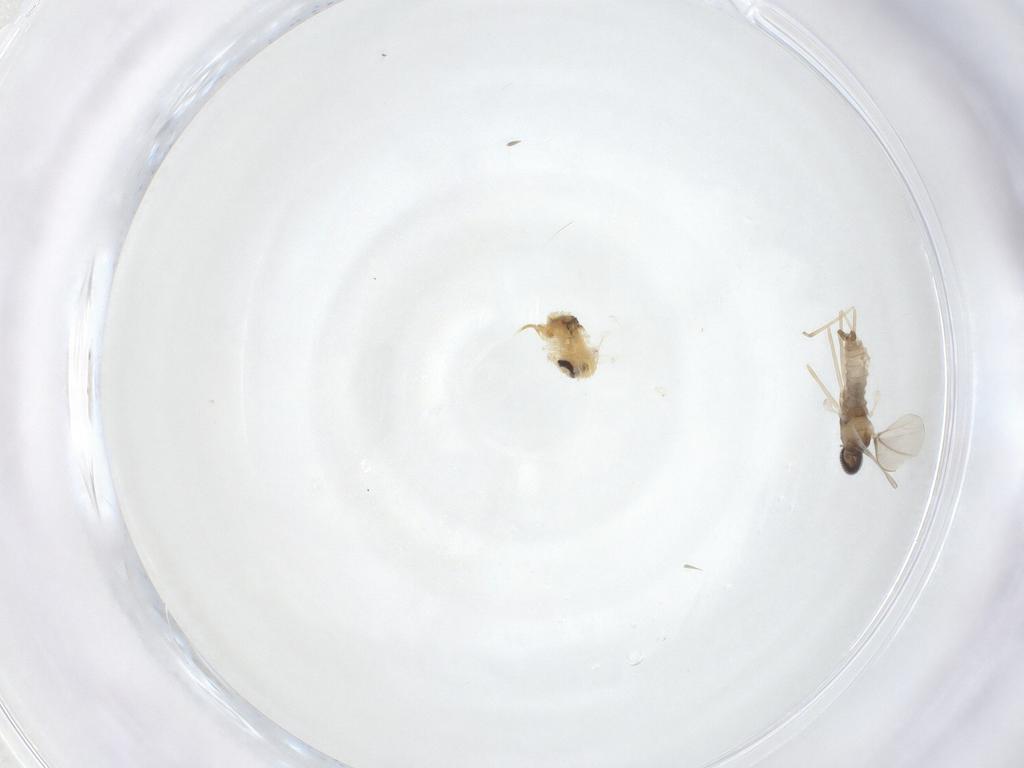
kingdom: Animalia
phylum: Arthropoda
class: Insecta
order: Diptera
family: Psychodidae
